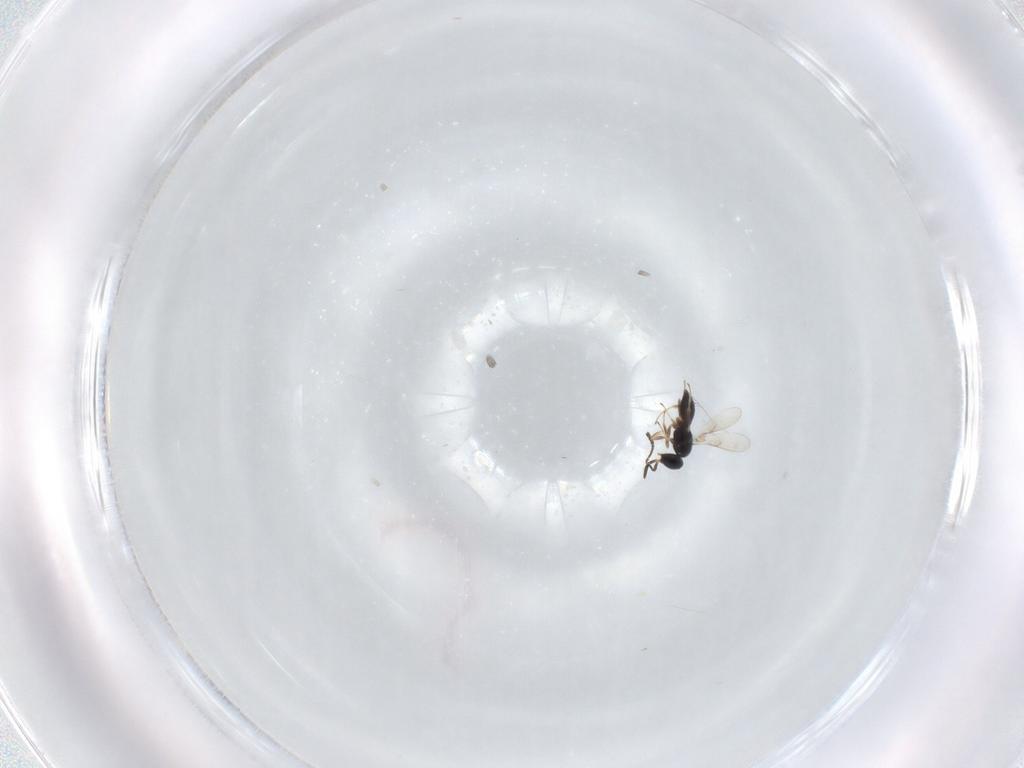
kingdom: Animalia
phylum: Arthropoda
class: Insecta
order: Hymenoptera
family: Scelionidae
